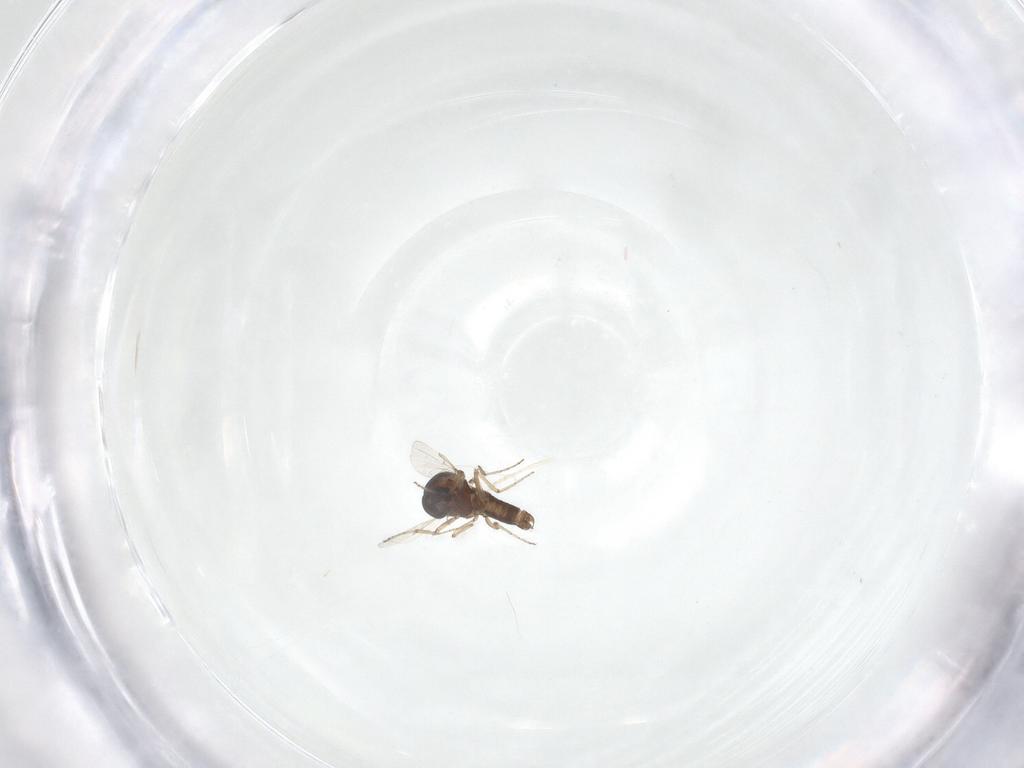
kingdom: Animalia
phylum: Arthropoda
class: Insecta
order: Diptera
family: Ceratopogonidae
